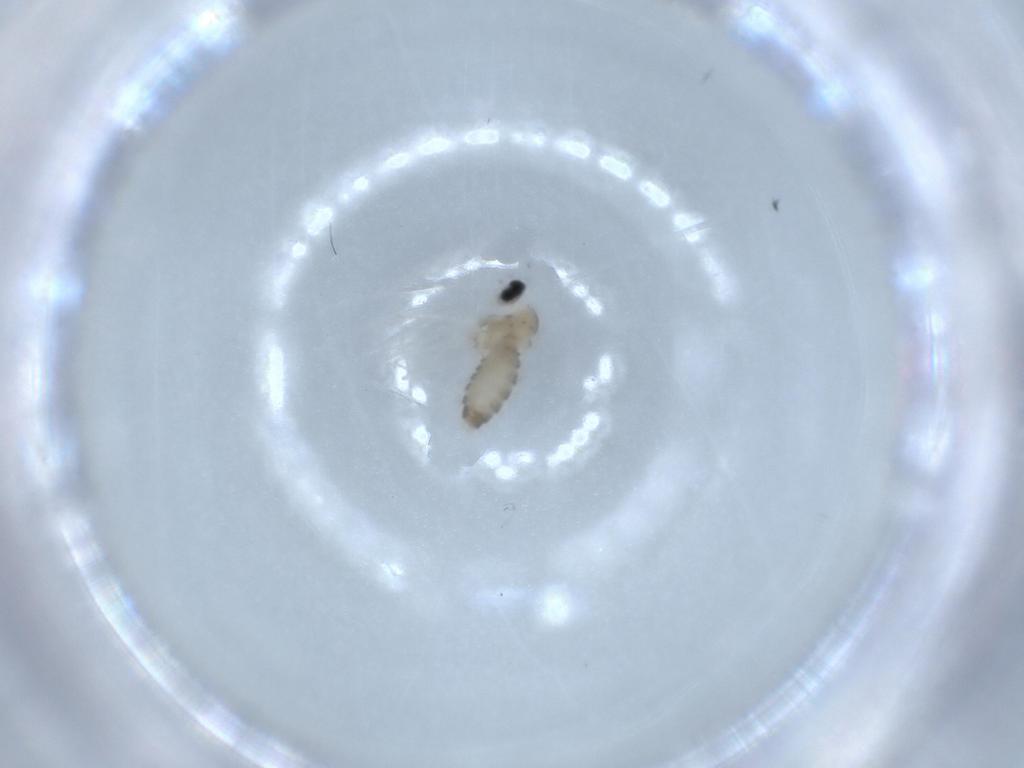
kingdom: Animalia
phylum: Arthropoda
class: Insecta
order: Diptera
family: Cecidomyiidae
